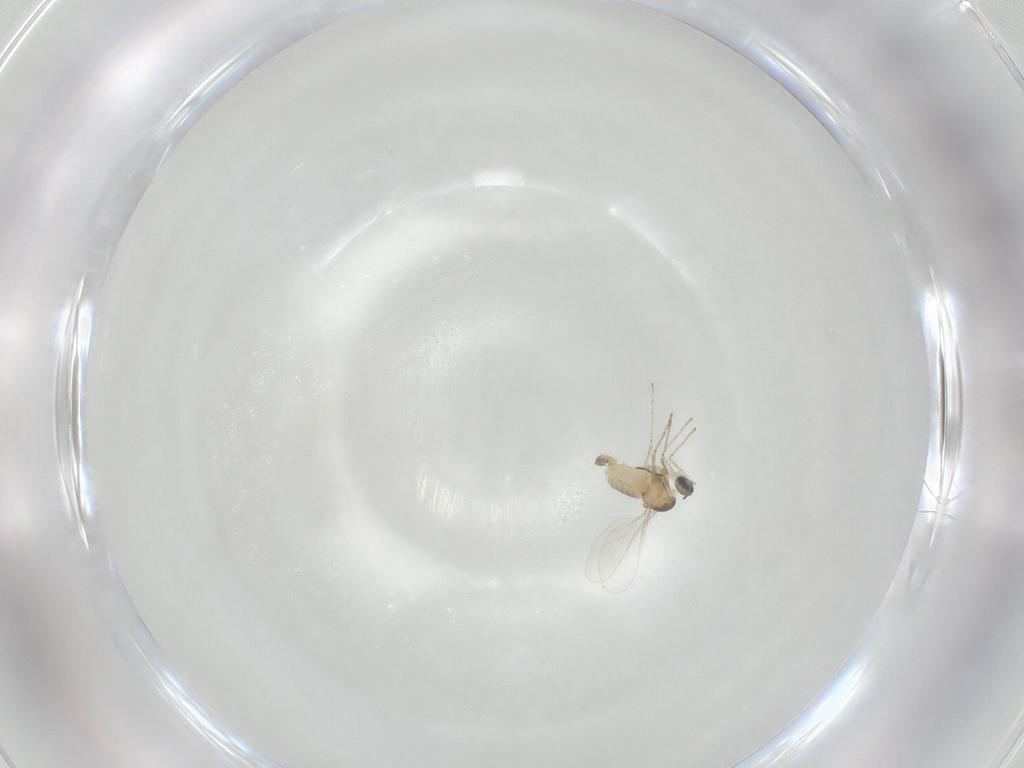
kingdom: Animalia
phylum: Arthropoda
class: Insecta
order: Diptera
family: Cecidomyiidae
